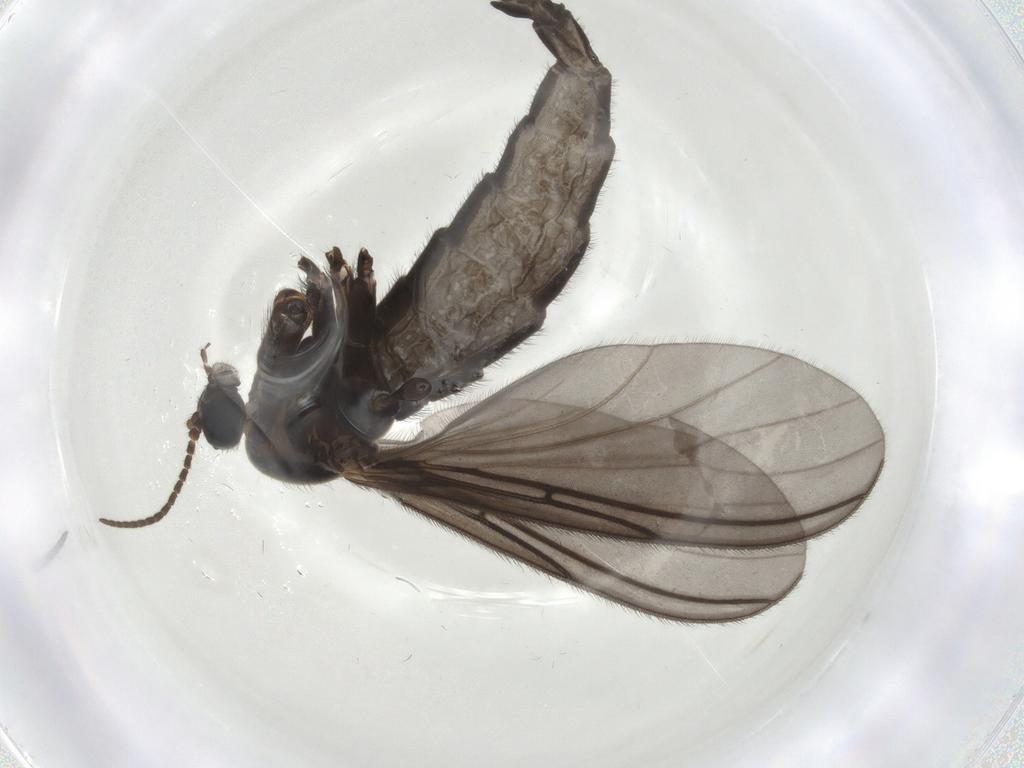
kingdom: Animalia
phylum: Arthropoda
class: Insecta
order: Diptera
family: Sciaridae
